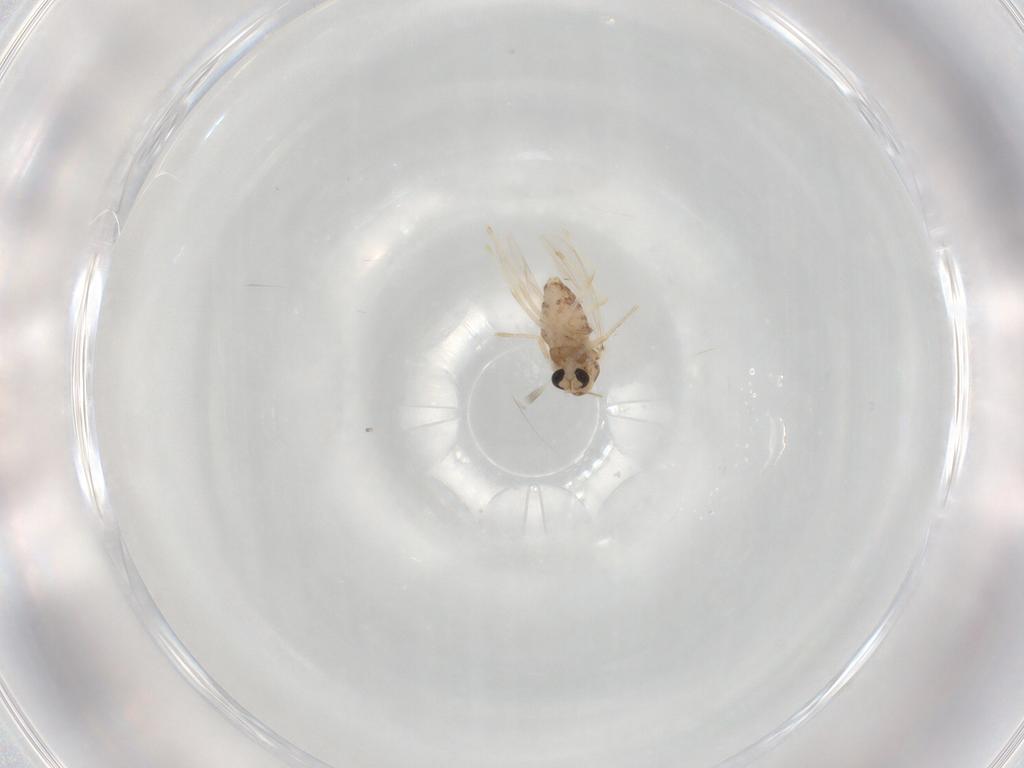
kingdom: Animalia
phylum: Arthropoda
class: Insecta
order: Diptera
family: Chironomidae
